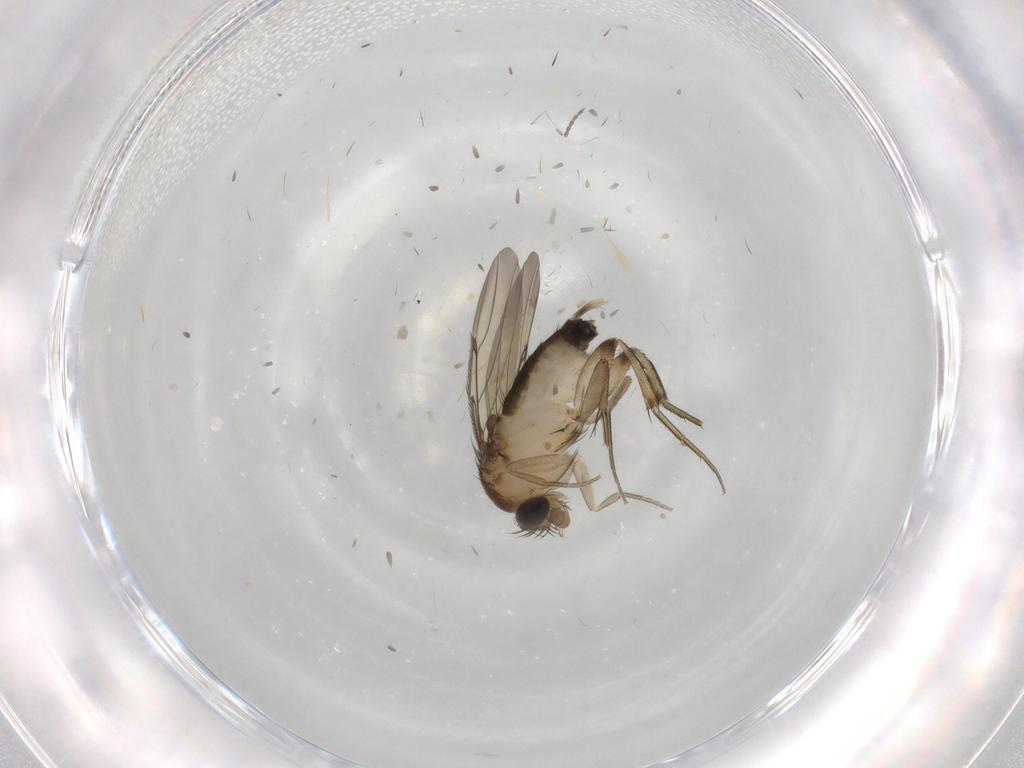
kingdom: Animalia
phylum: Arthropoda
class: Insecta
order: Diptera
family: Phoridae
